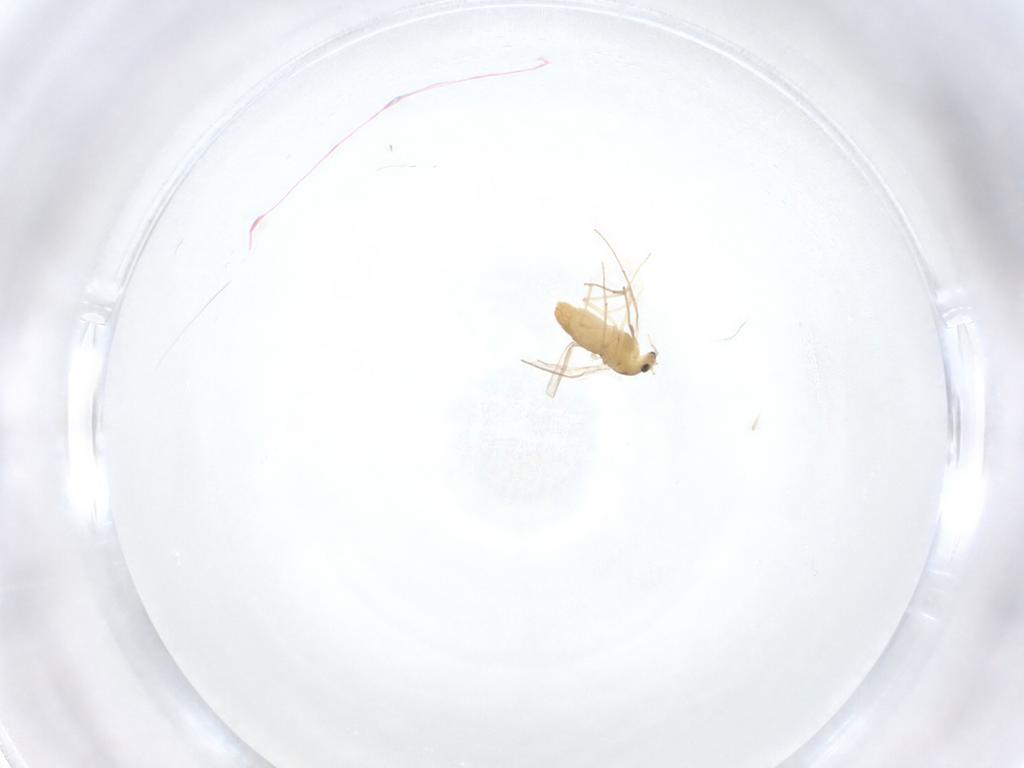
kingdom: Animalia
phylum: Arthropoda
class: Insecta
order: Diptera
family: Chironomidae
